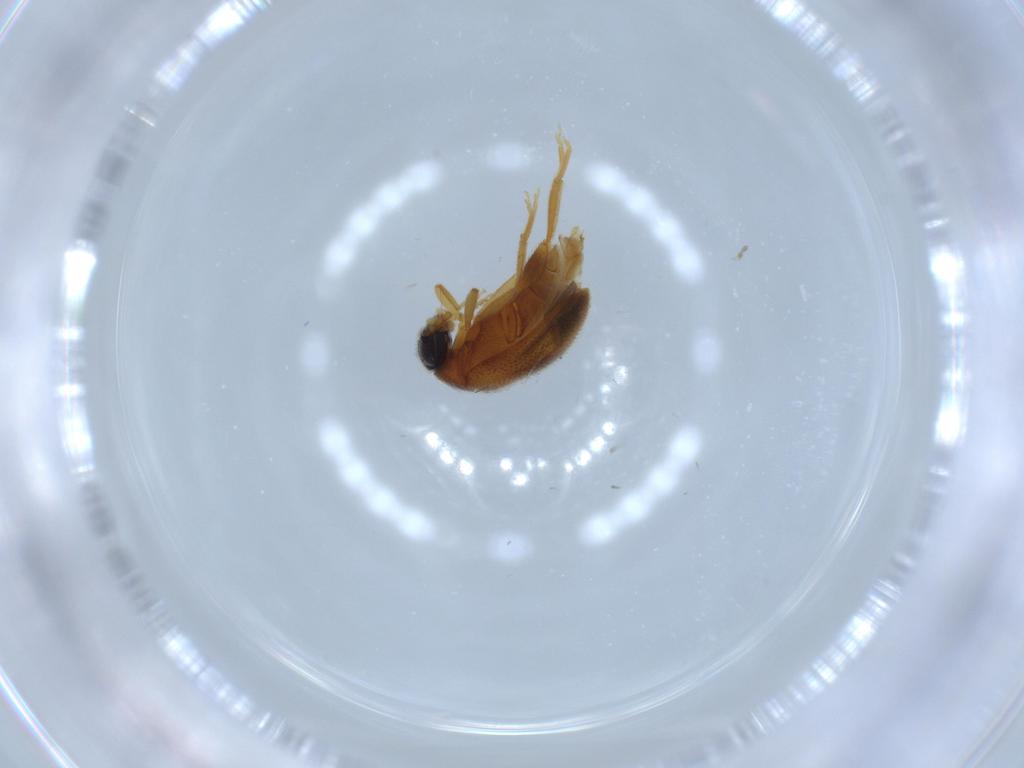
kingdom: Animalia
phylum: Arthropoda
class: Insecta
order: Coleoptera
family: Aderidae
